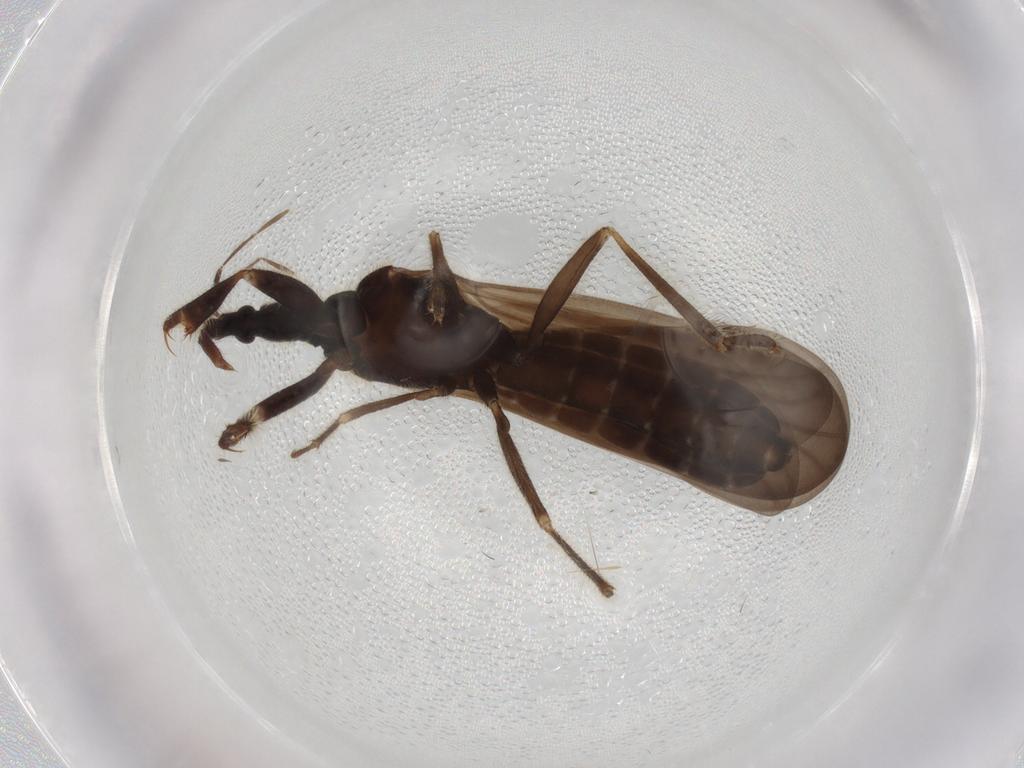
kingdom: Animalia
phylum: Arthropoda
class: Insecta
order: Hemiptera
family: Enicocephalidae
